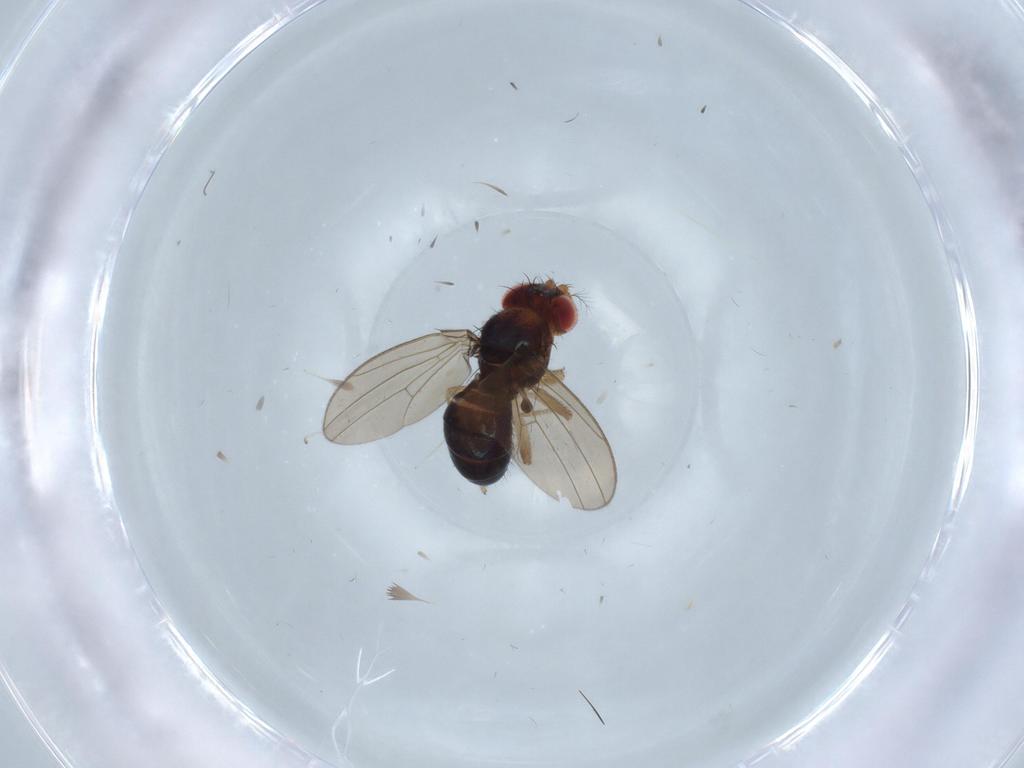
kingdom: Animalia
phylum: Arthropoda
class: Insecta
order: Diptera
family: Drosophilidae
